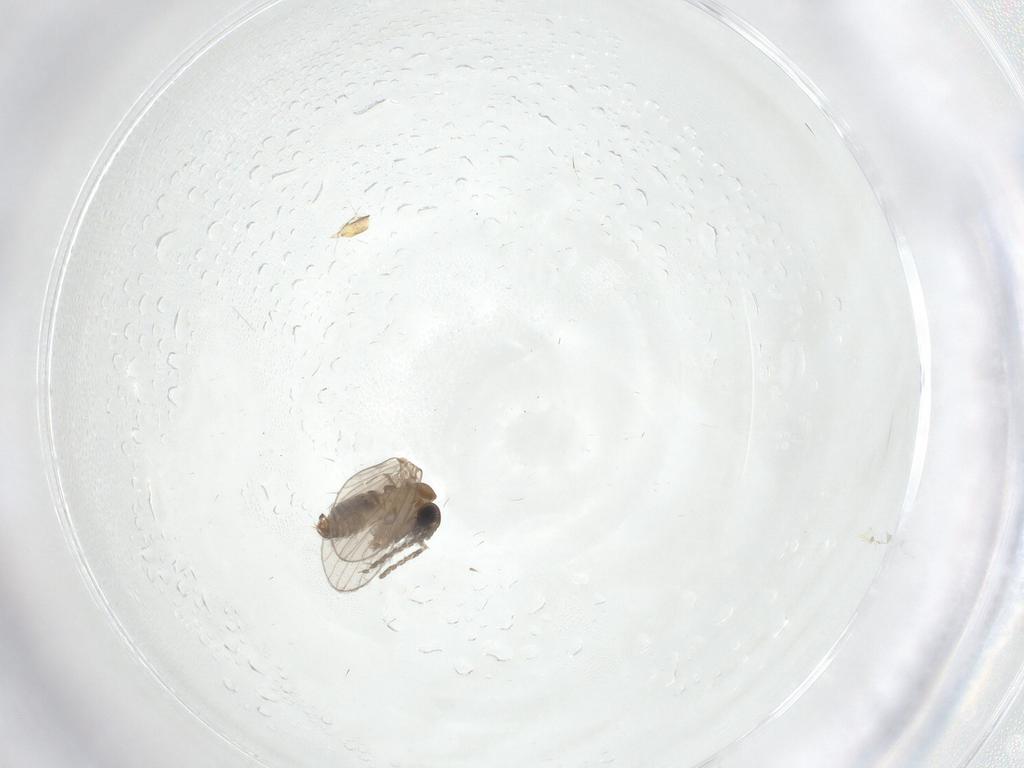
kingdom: Animalia
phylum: Arthropoda
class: Insecta
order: Diptera
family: Psychodidae
